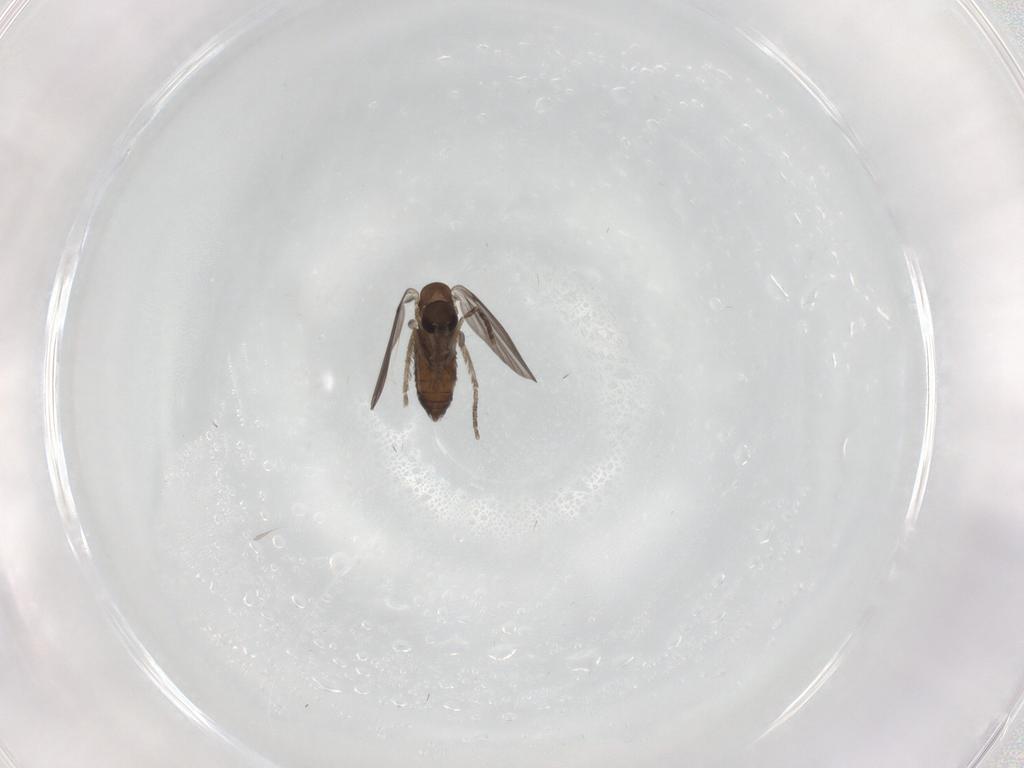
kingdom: Animalia
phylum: Arthropoda
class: Insecta
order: Diptera
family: Sciaridae
